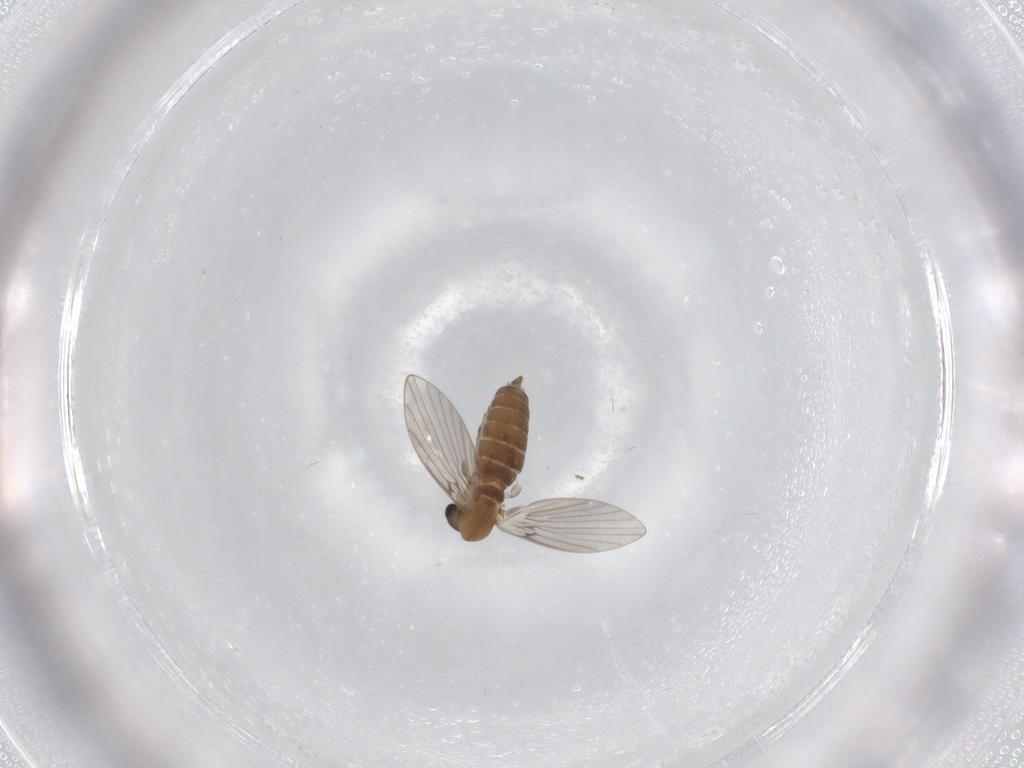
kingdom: Animalia
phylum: Arthropoda
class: Insecta
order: Diptera
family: Psychodidae
